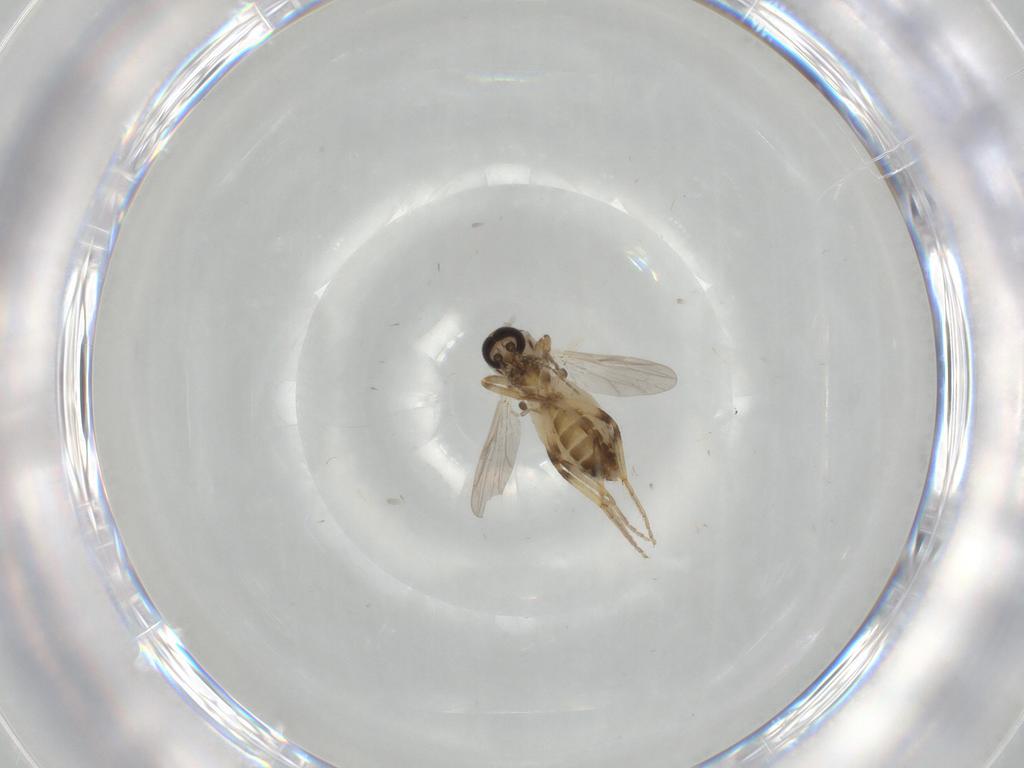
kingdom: Animalia
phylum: Arthropoda
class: Insecta
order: Diptera
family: Ceratopogonidae
